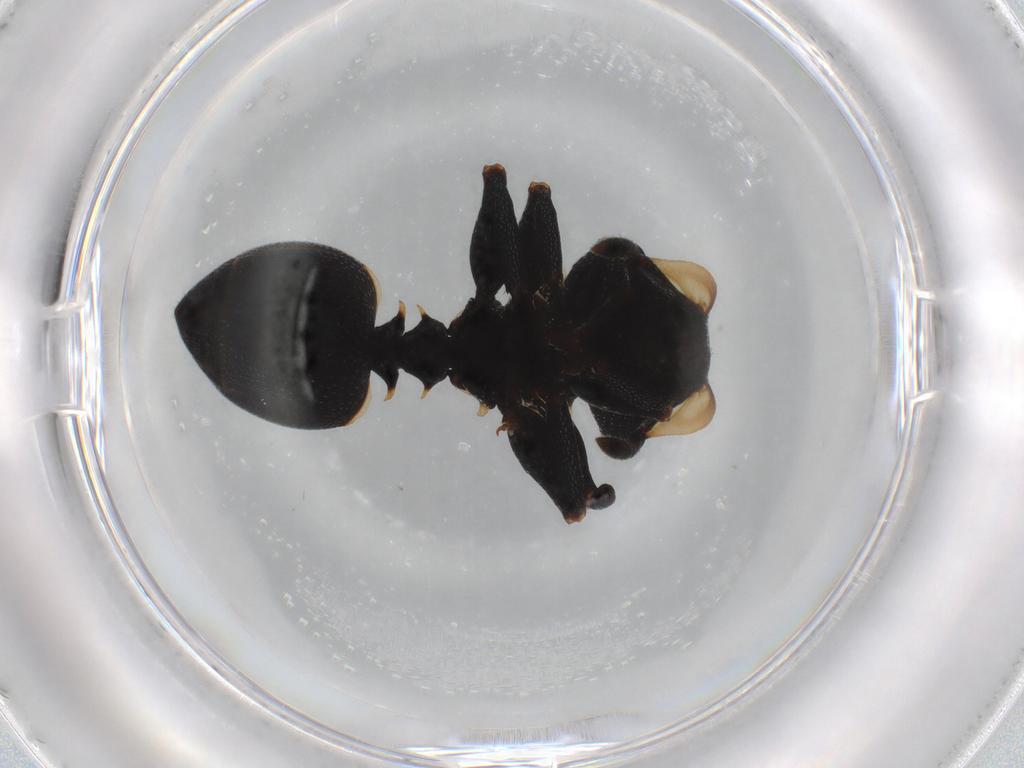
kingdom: Animalia
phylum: Arthropoda
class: Insecta
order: Hymenoptera
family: Formicidae
